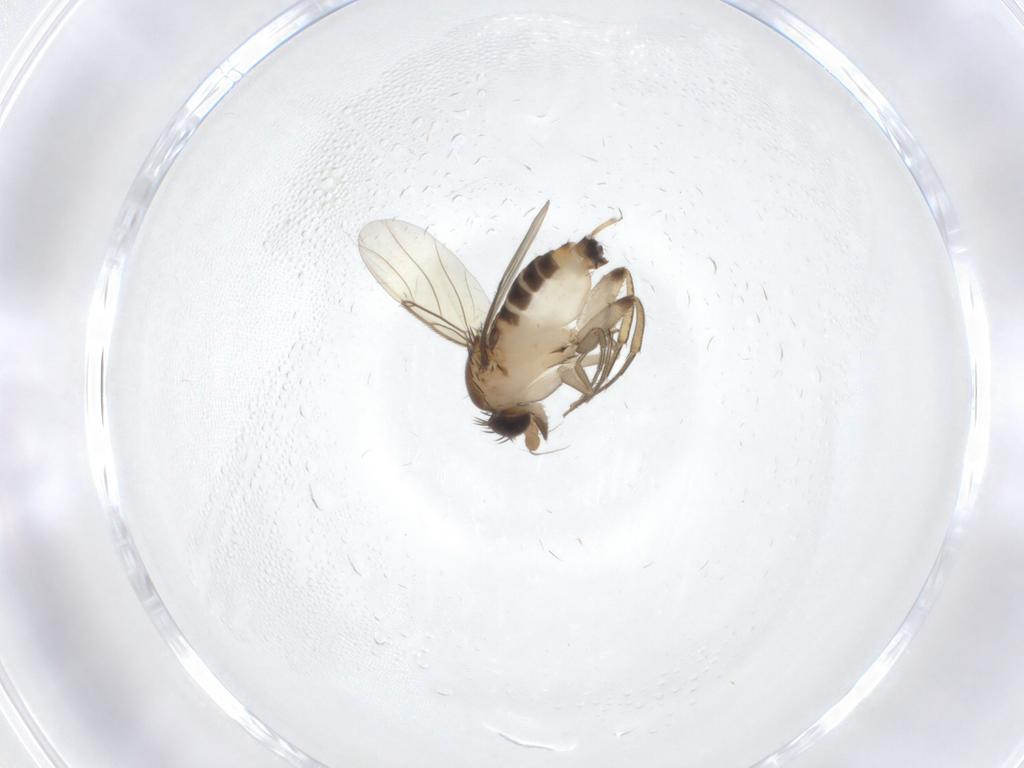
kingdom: Animalia
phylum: Arthropoda
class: Insecta
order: Diptera
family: Phoridae
